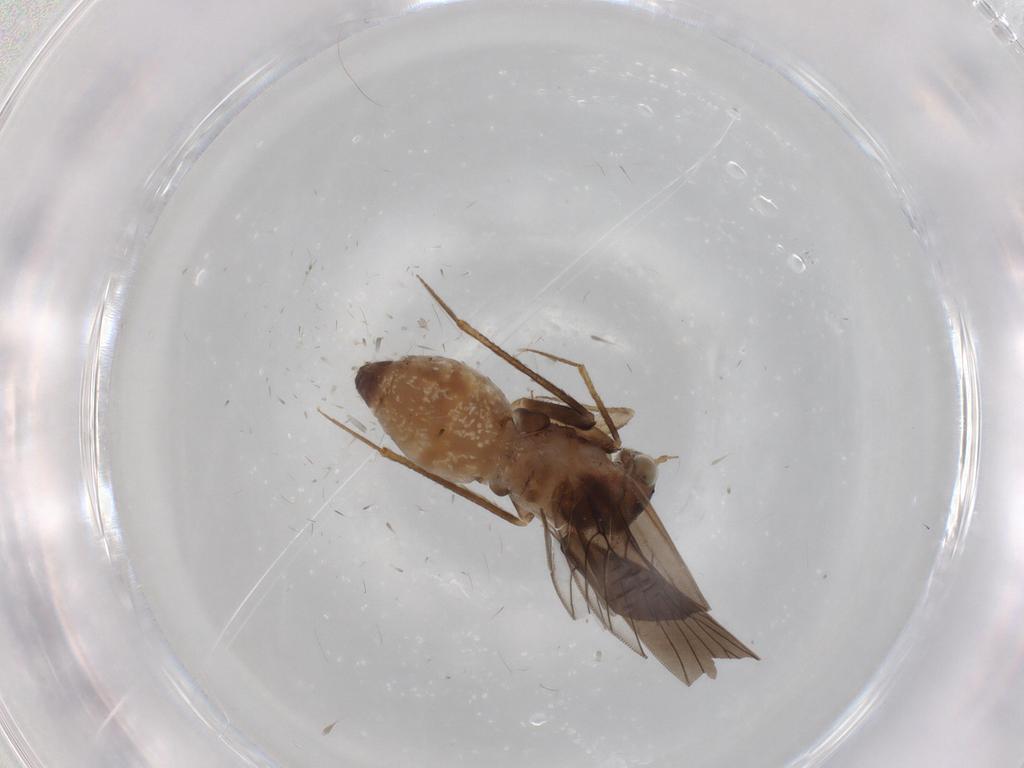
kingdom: Animalia
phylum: Arthropoda
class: Insecta
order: Psocodea
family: Lepidopsocidae
